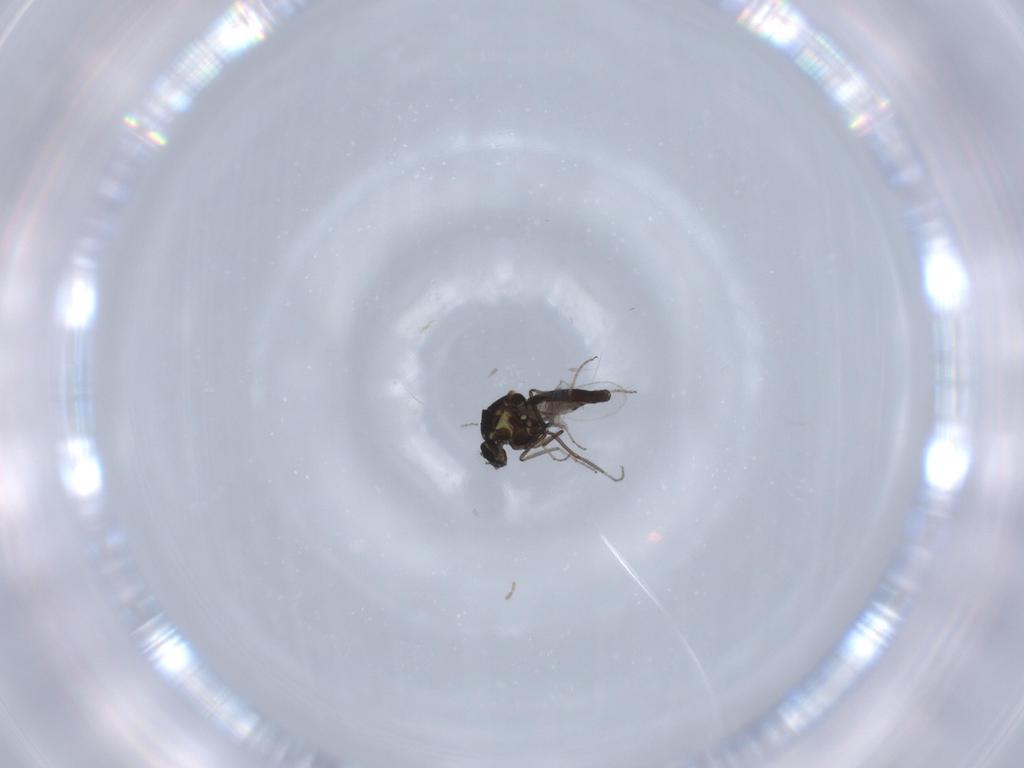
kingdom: Animalia
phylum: Arthropoda
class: Insecta
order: Diptera
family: Ceratopogonidae
